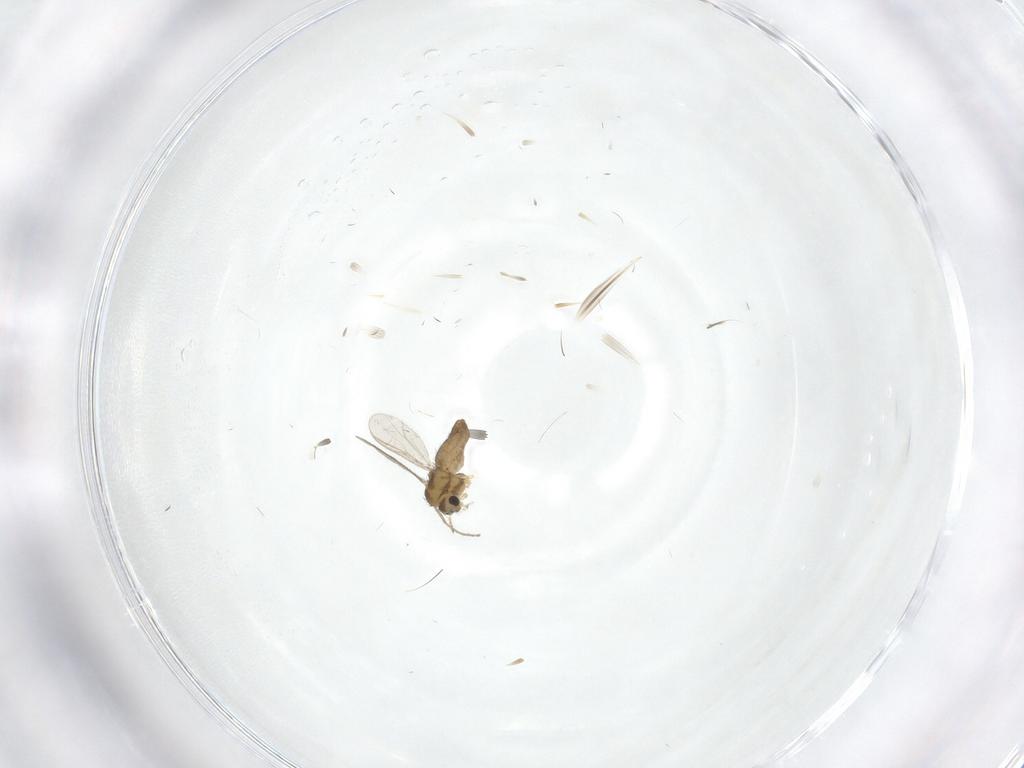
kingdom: Animalia
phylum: Arthropoda
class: Insecta
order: Diptera
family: Chironomidae
